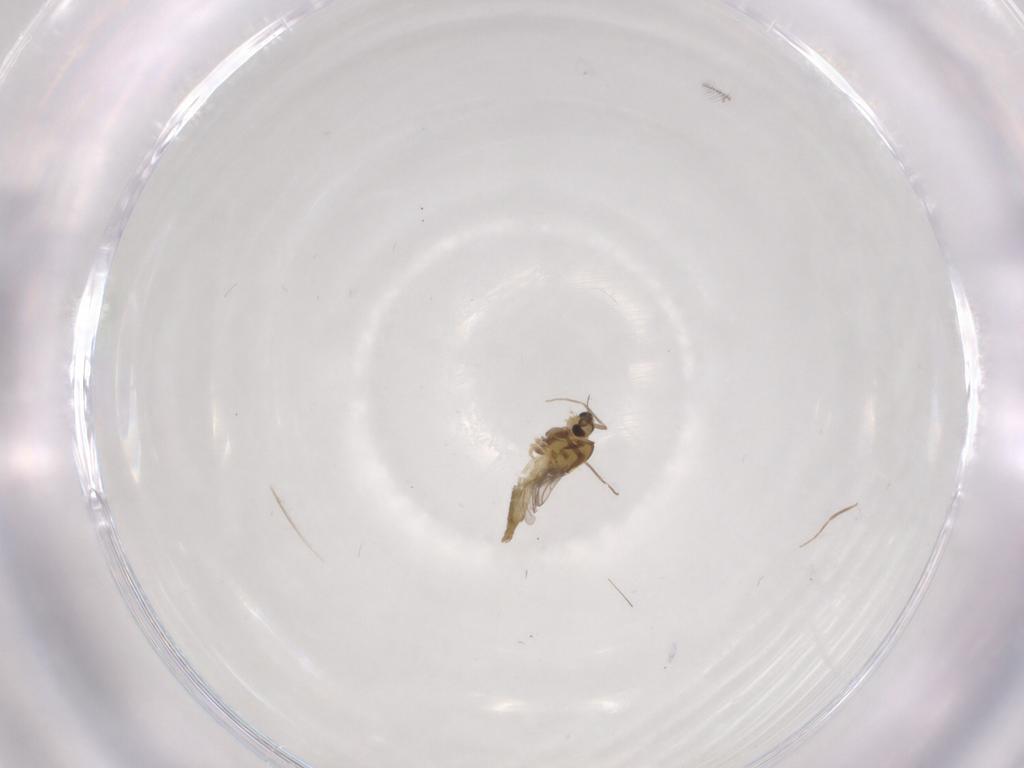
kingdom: Animalia
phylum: Arthropoda
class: Insecta
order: Diptera
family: Chironomidae
